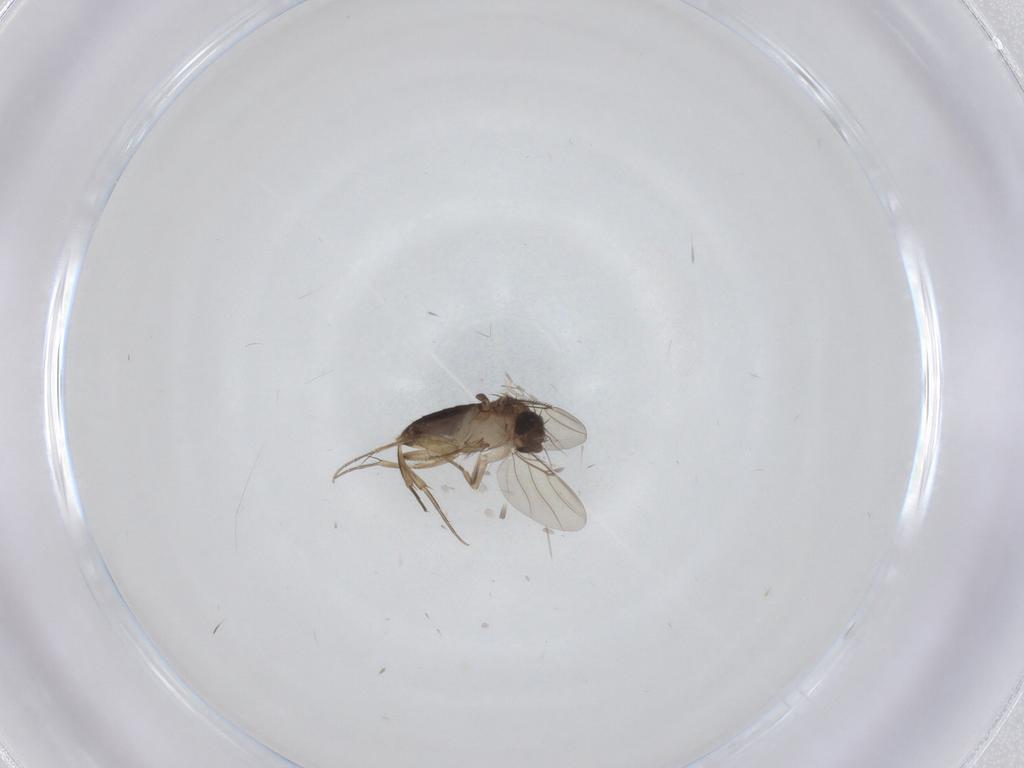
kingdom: Animalia
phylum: Arthropoda
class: Insecta
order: Diptera
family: Phoridae
